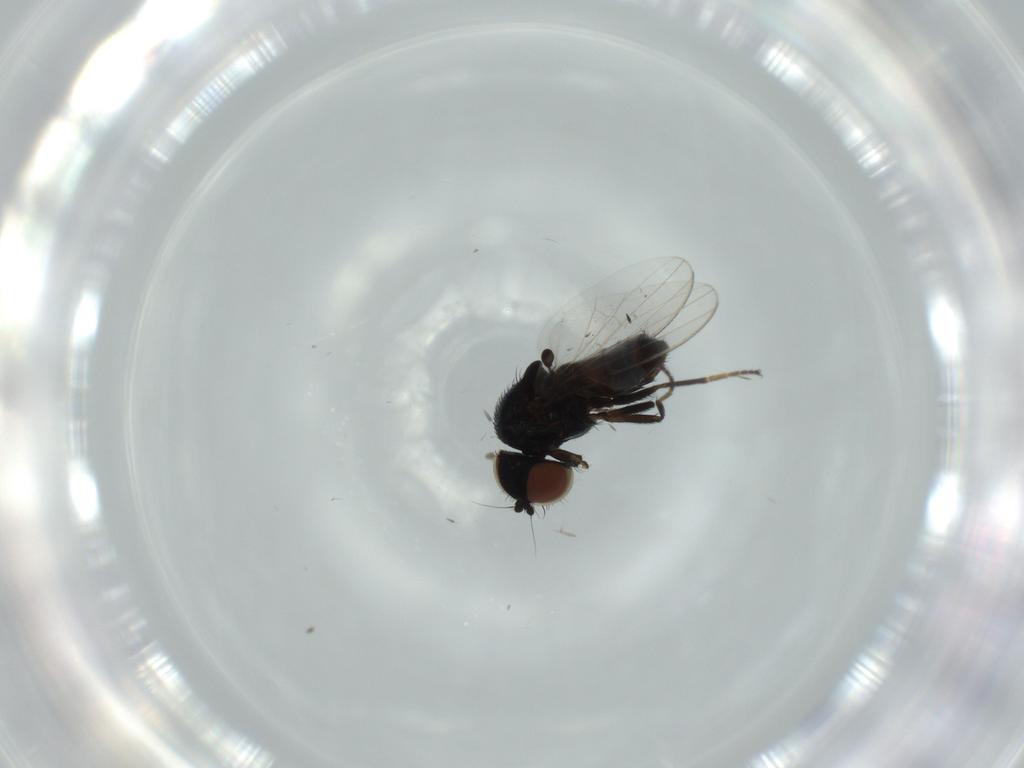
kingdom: Animalia
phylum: Arthropoda
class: Insecta
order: Diptera
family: Milichiidae
